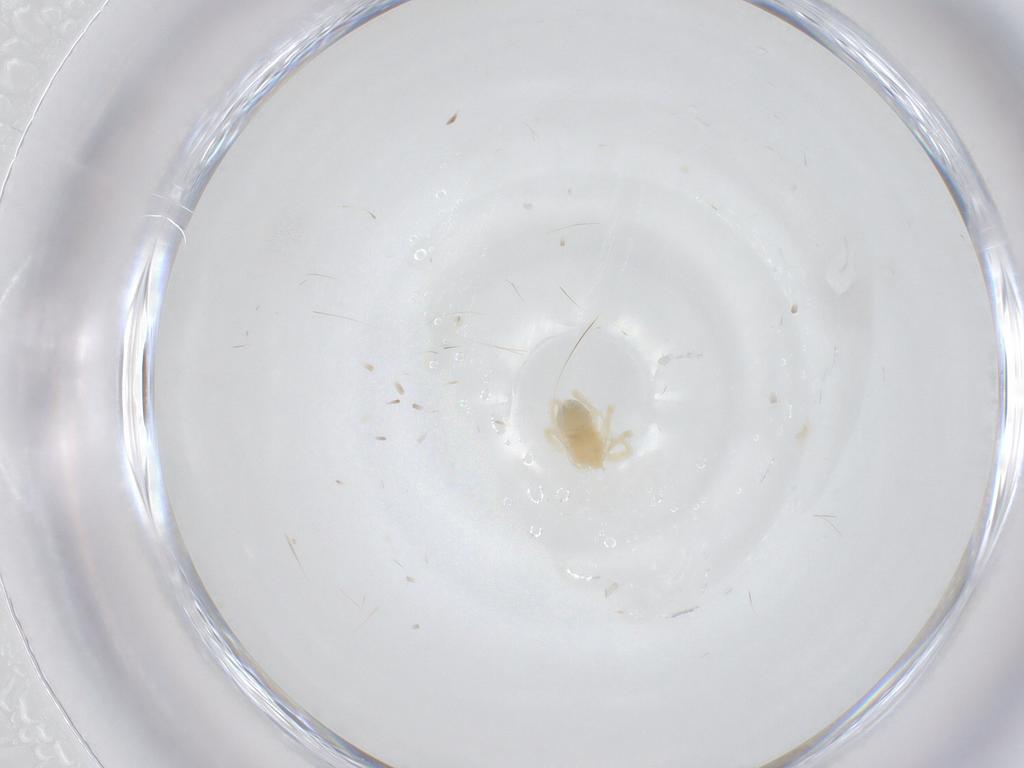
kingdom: Animalia
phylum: Arthropoda
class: Arachnida
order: Trombidiformes
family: Anystidae
